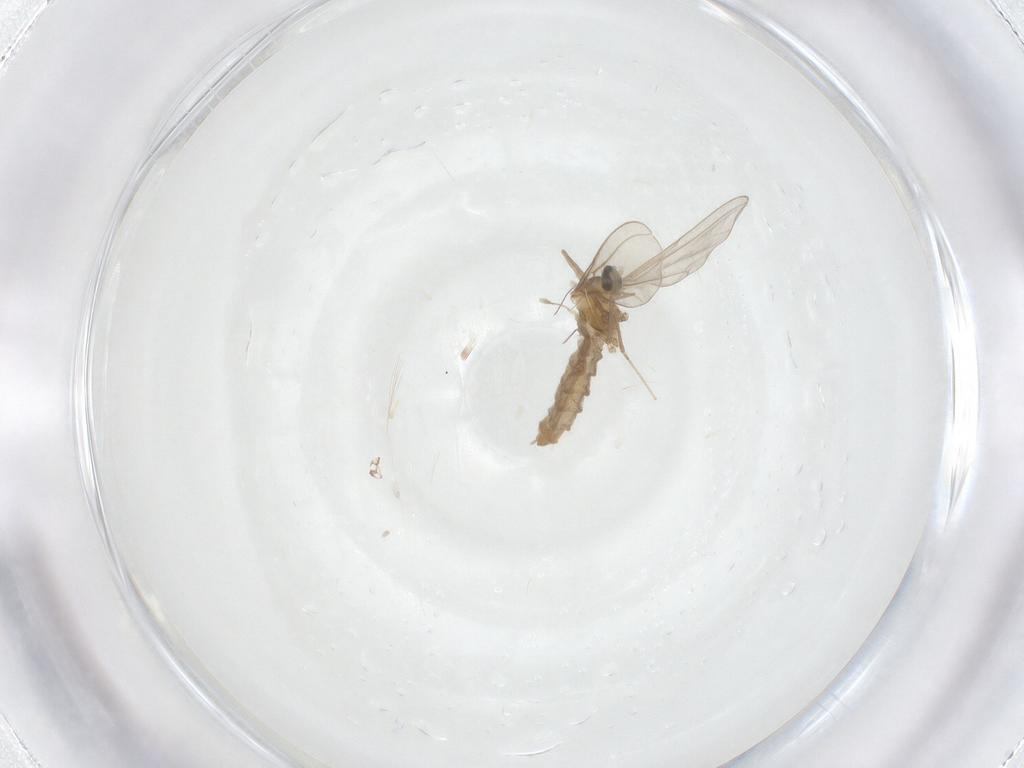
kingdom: Animalia
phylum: Arthropoda
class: Insecta
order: Diptera
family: Cecidomyiidae
